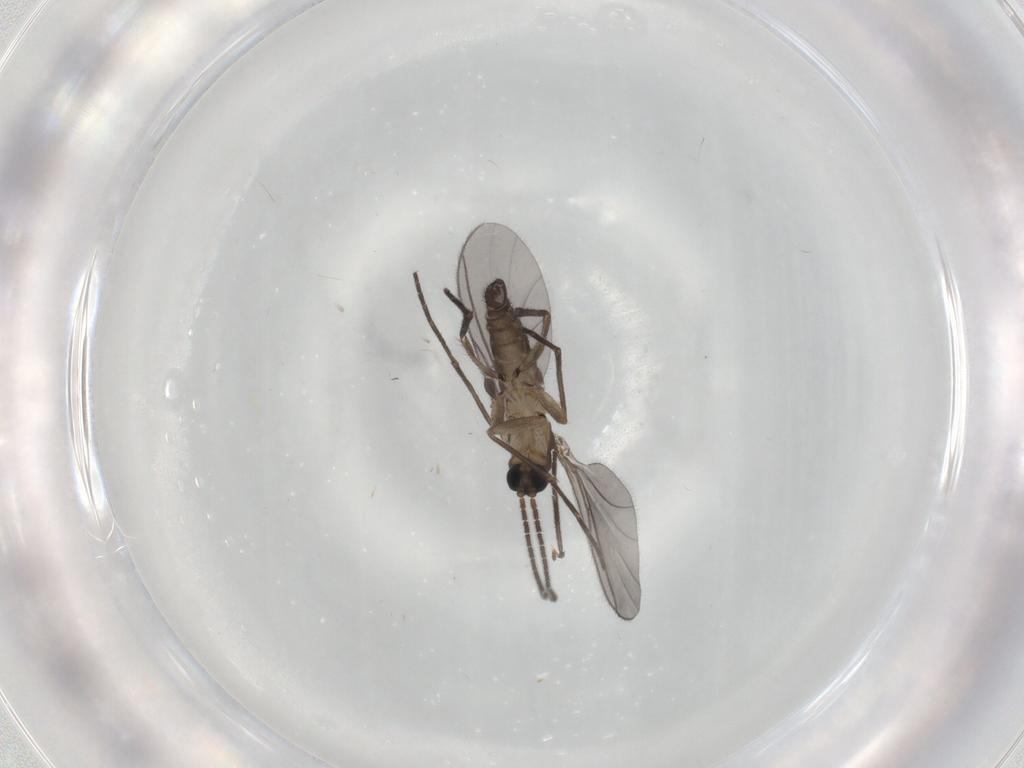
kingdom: Animalia
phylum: Arthropoda
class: Insecta
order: Diptera
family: Sciaridae
